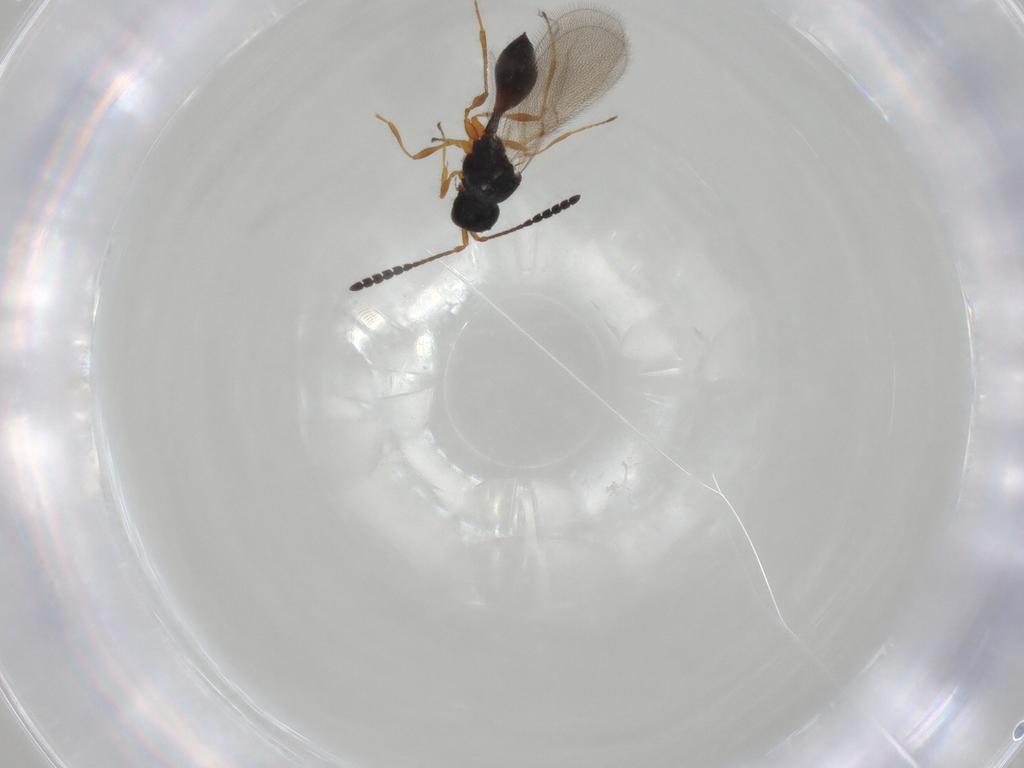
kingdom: Animalia
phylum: Arthropoda
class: Insecta
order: Hymenoptera
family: Diapriidae
